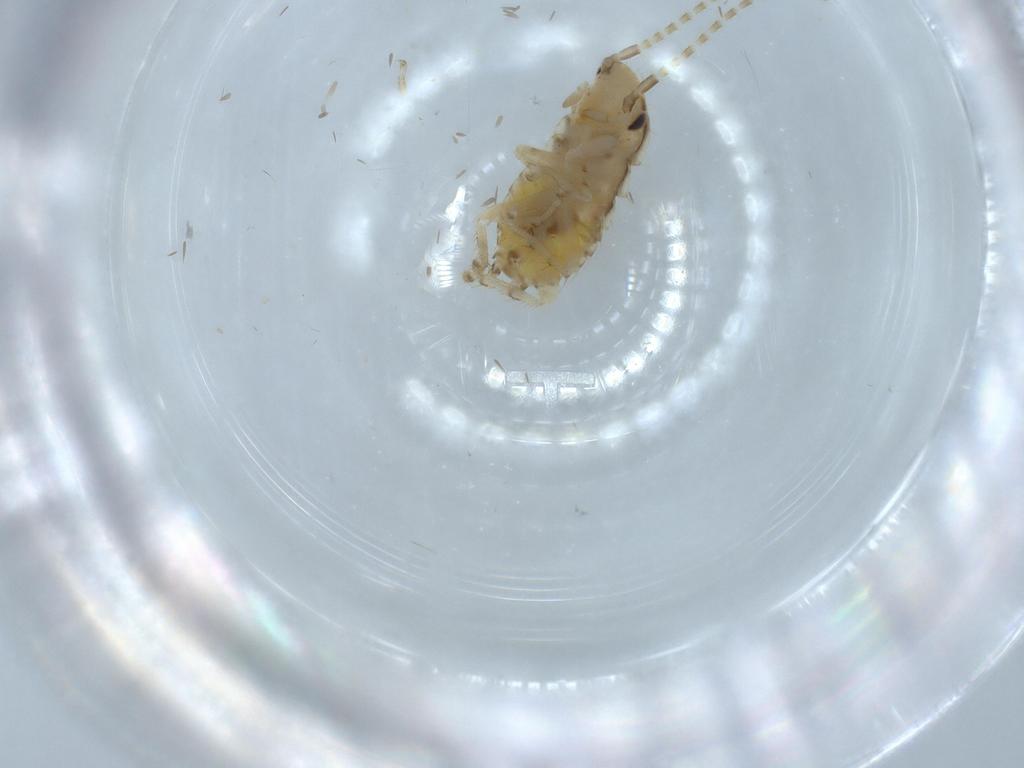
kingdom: Animalia
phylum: Arthropoda
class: Insecta
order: Blattodea
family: Ectobiidae
